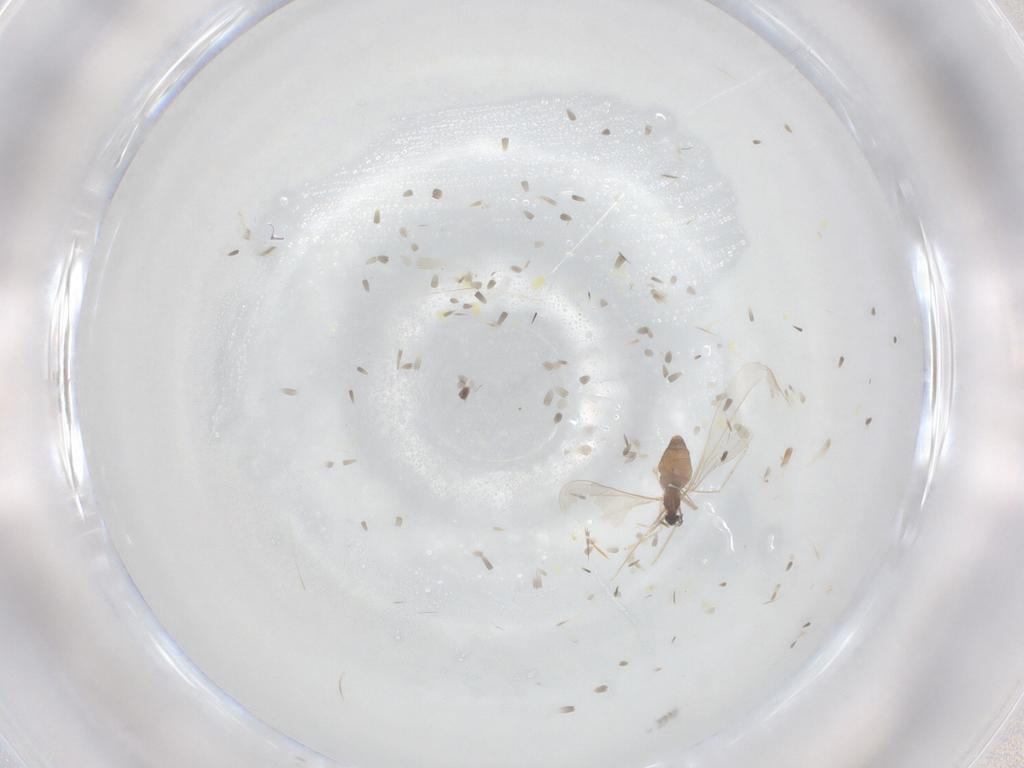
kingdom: Animalia
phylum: Arthropoda
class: Insecta
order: Diptera
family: Cecidomyiidae
